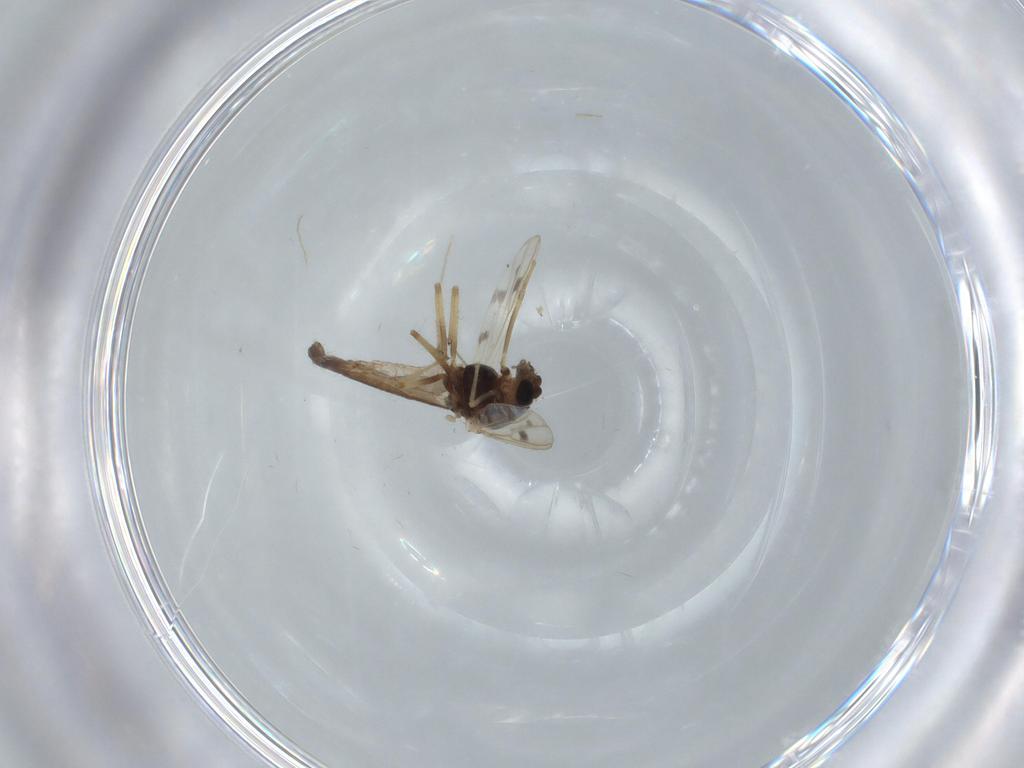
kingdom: Animalia
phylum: Arthropoda
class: Insecta
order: Diptera
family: Chironomidae
